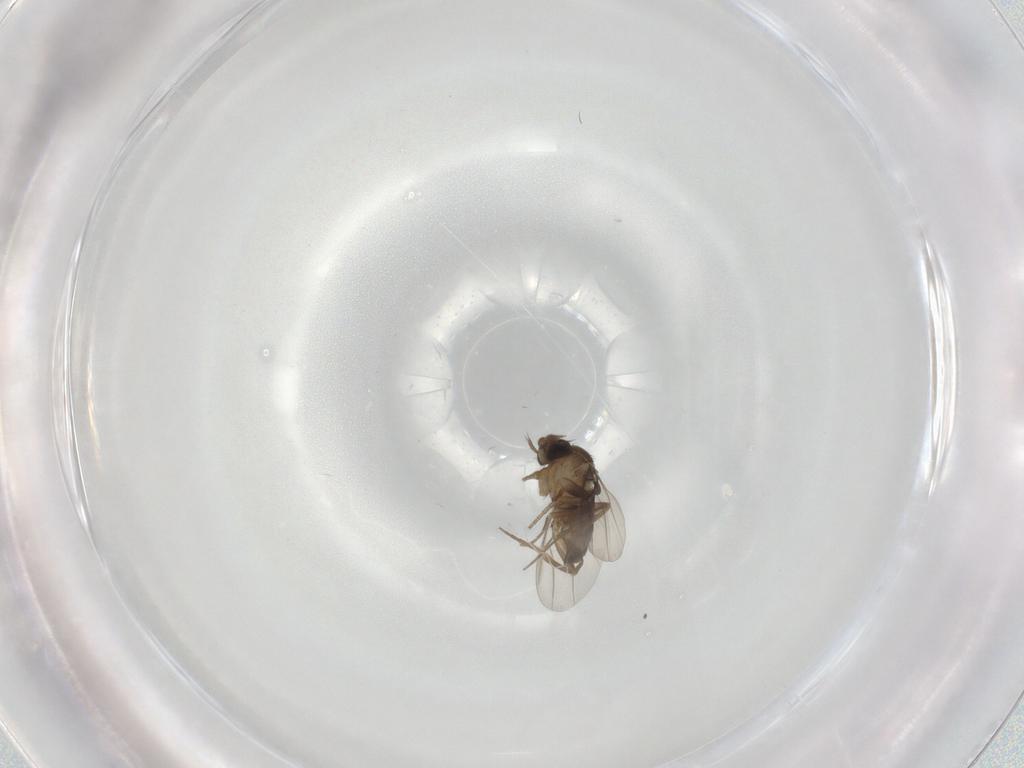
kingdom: Animalia
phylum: Arthropoda
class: Insecta
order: Diptera
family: Phoridae
